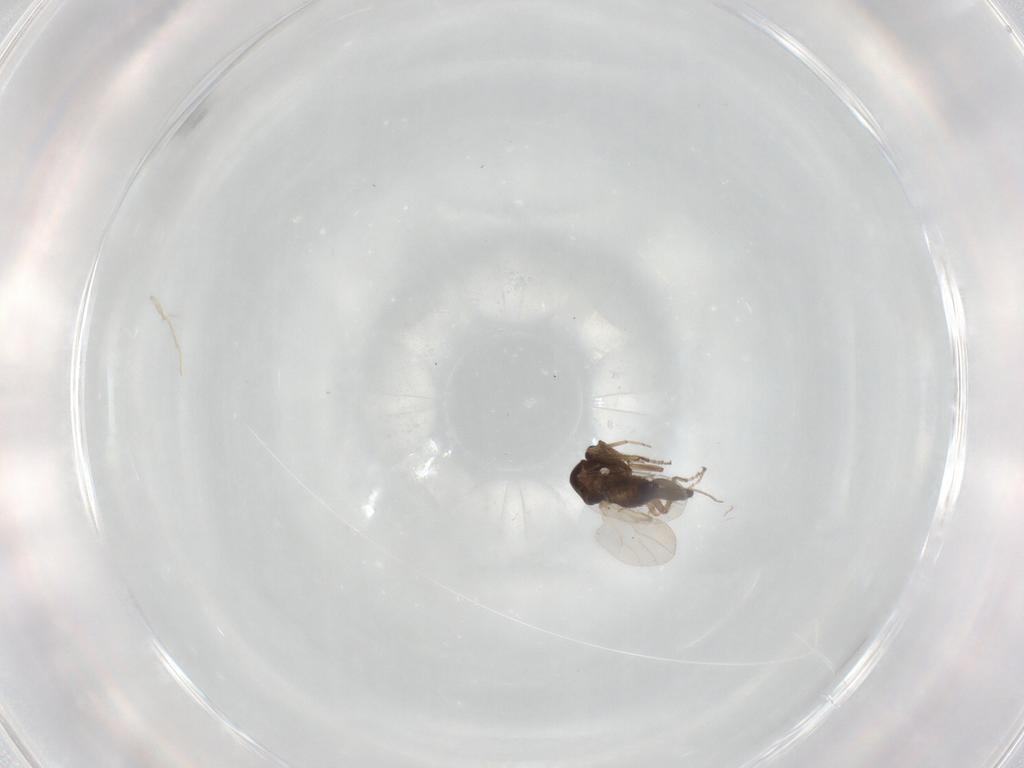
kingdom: Animalia
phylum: Arthropoda
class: Insecta
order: Diptera
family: Ceratopogonidae
